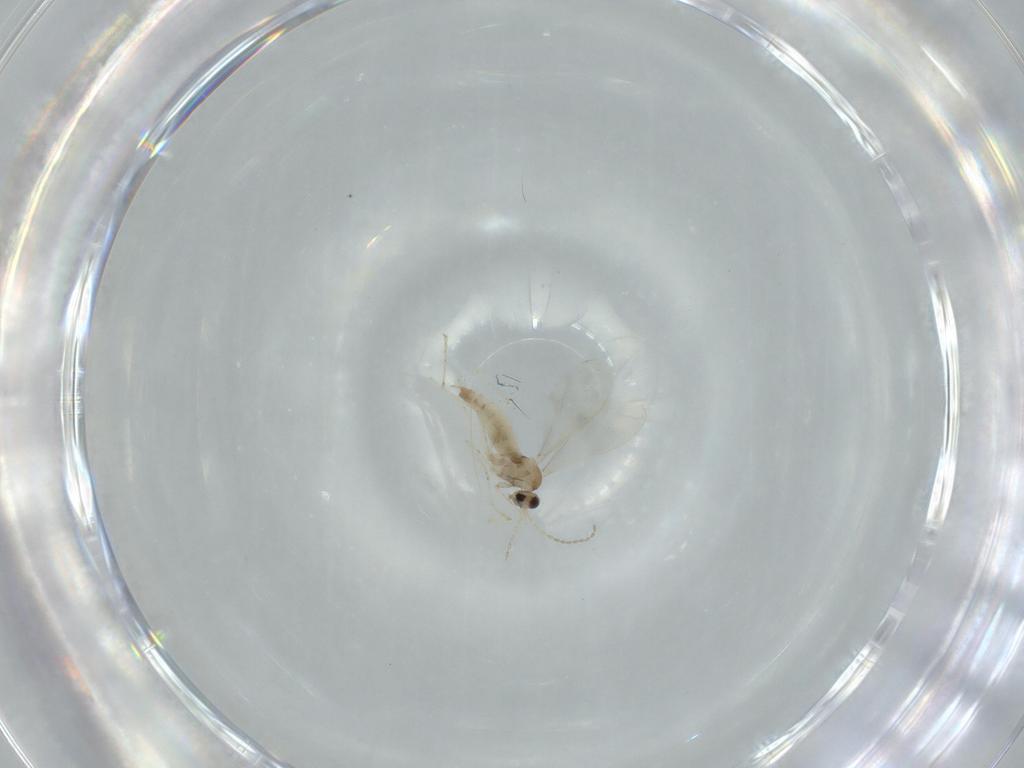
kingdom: Animalia
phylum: Arthropoda
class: Insecta
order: Diptera
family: Cecidomyiidae
